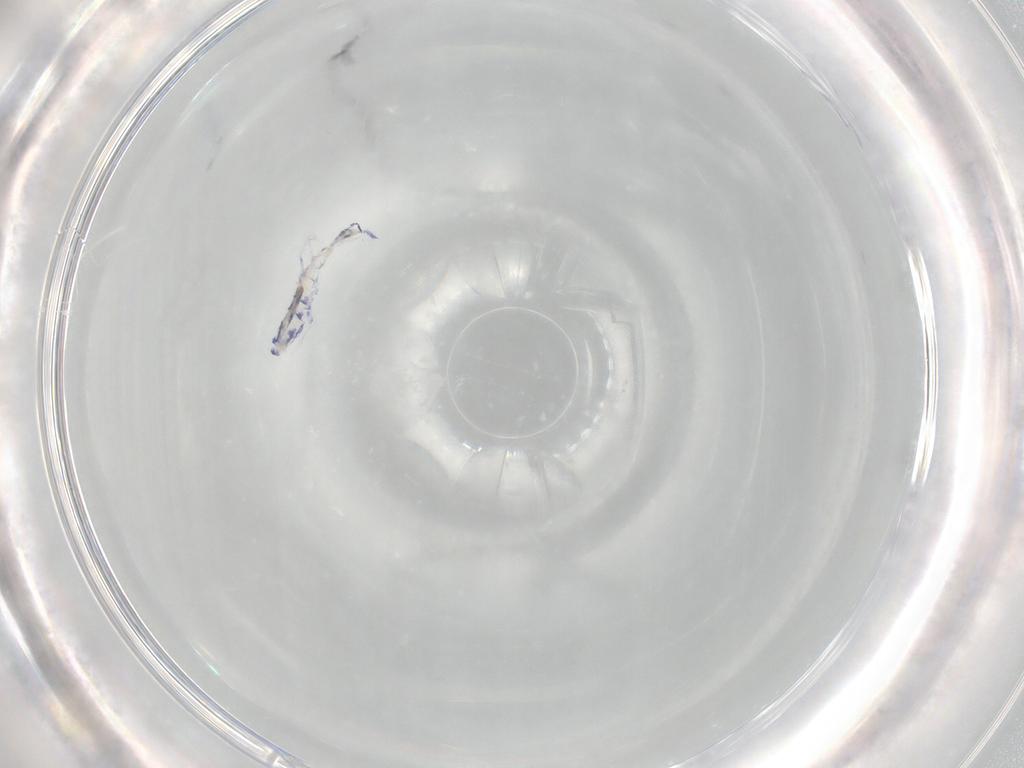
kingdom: Animalia
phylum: Arthropoda
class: Collembola
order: Entomobryomorpha
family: Entomobryidae
